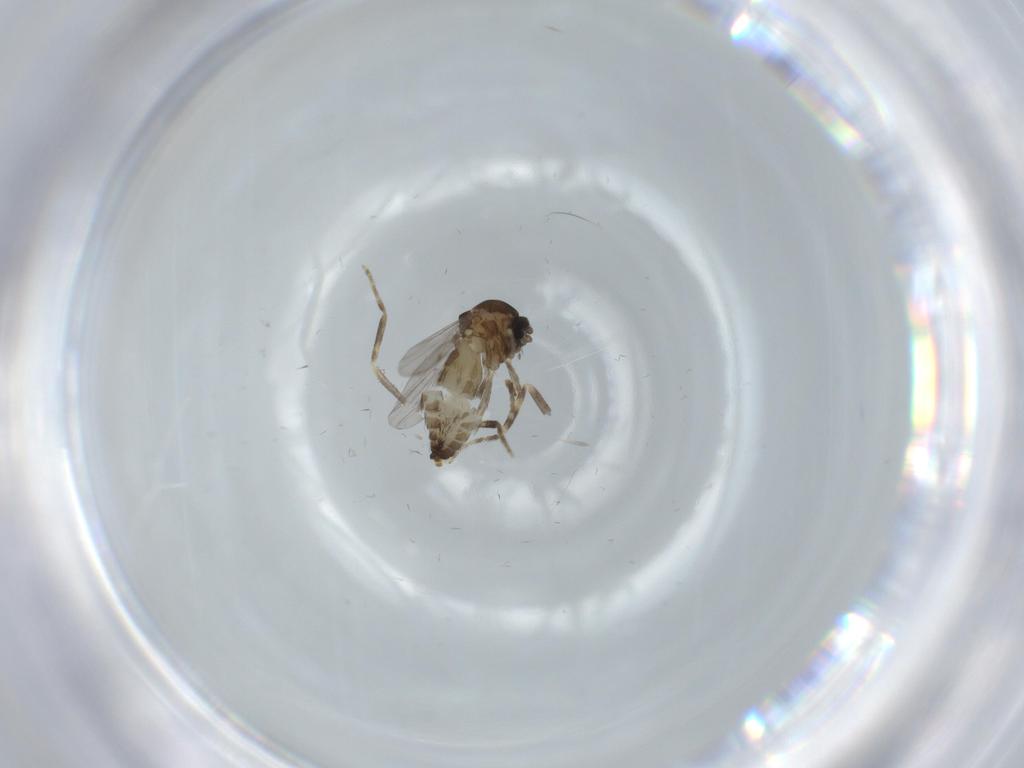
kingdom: Animalia
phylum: Arthropoda
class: Insecta
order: Diptera
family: Ceratopogonidae
